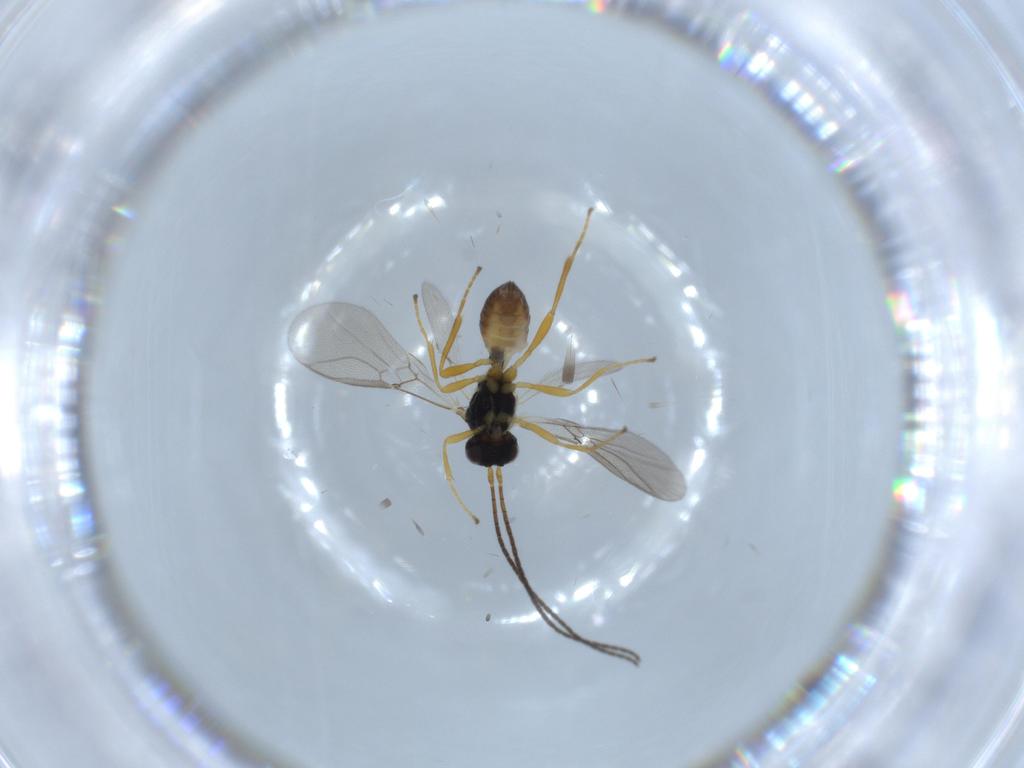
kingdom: Animalia
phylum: Arthropoda
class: Insecta
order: Hymenoptera
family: Braconidae
